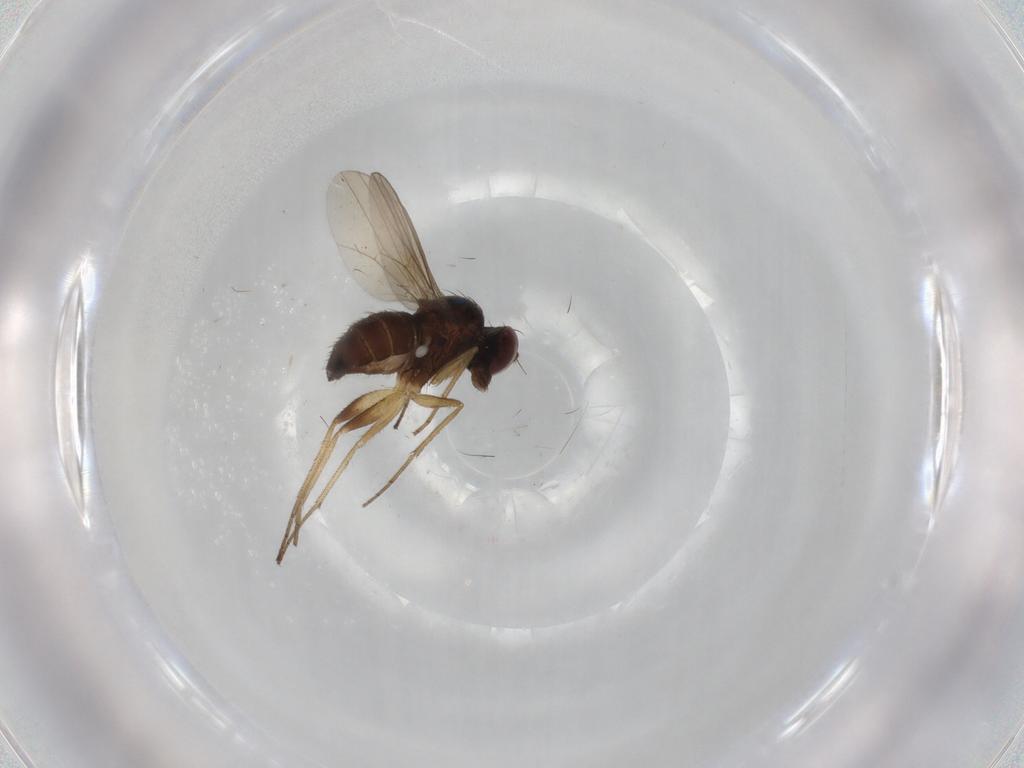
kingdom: Animalia
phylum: Arthropoda
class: Insecta
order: Diptera
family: Dolichopodidae
